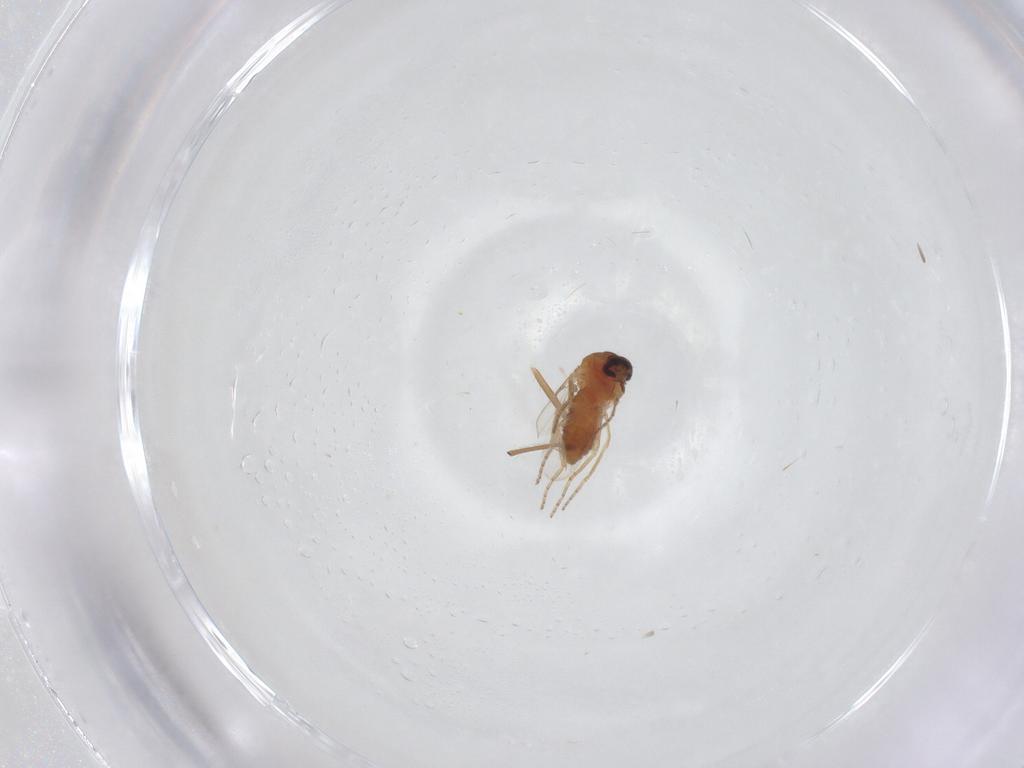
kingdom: Animalia
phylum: Arthropoda
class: Insecta
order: Diptera
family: Ceratopogonidae
